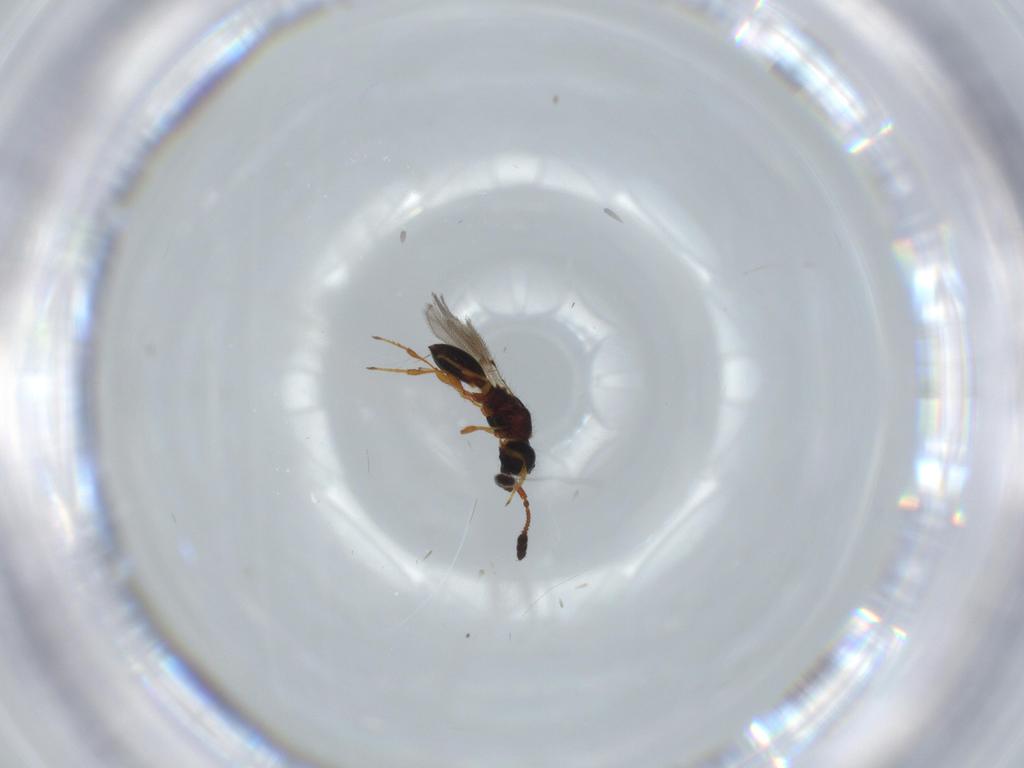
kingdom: Animalia
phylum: Arthropoda
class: Insecta
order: Hymenoptera
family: Diapriidae
